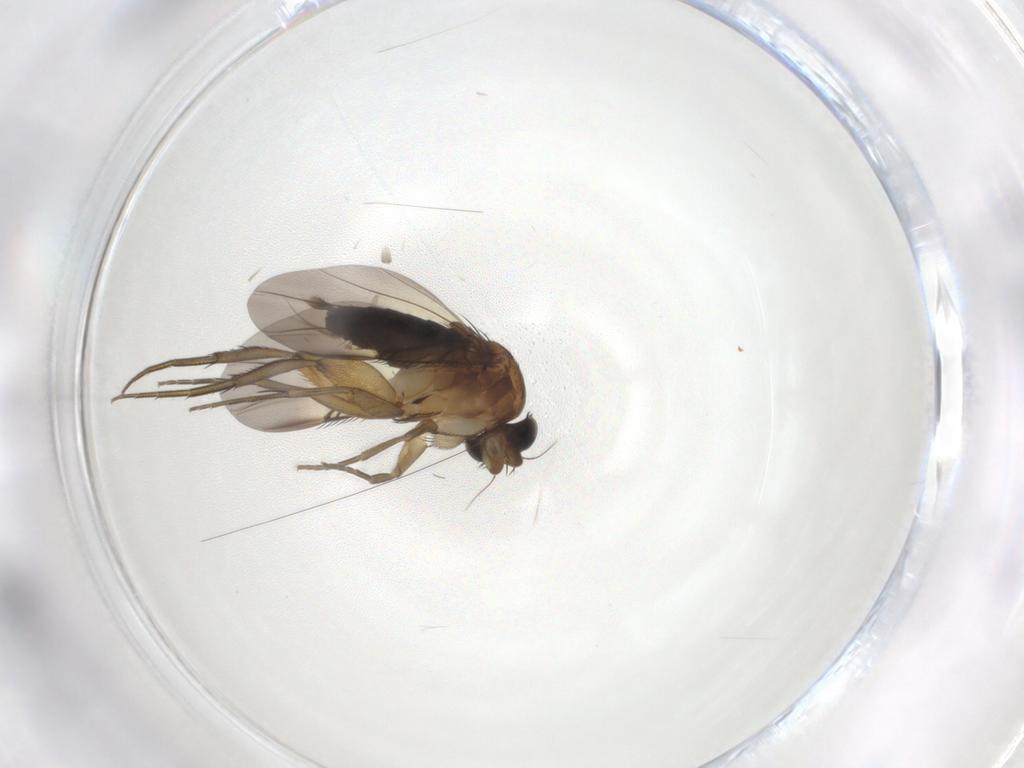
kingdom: Animalia
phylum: Arthropoda
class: Insecta
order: Diptera
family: Phoridae
